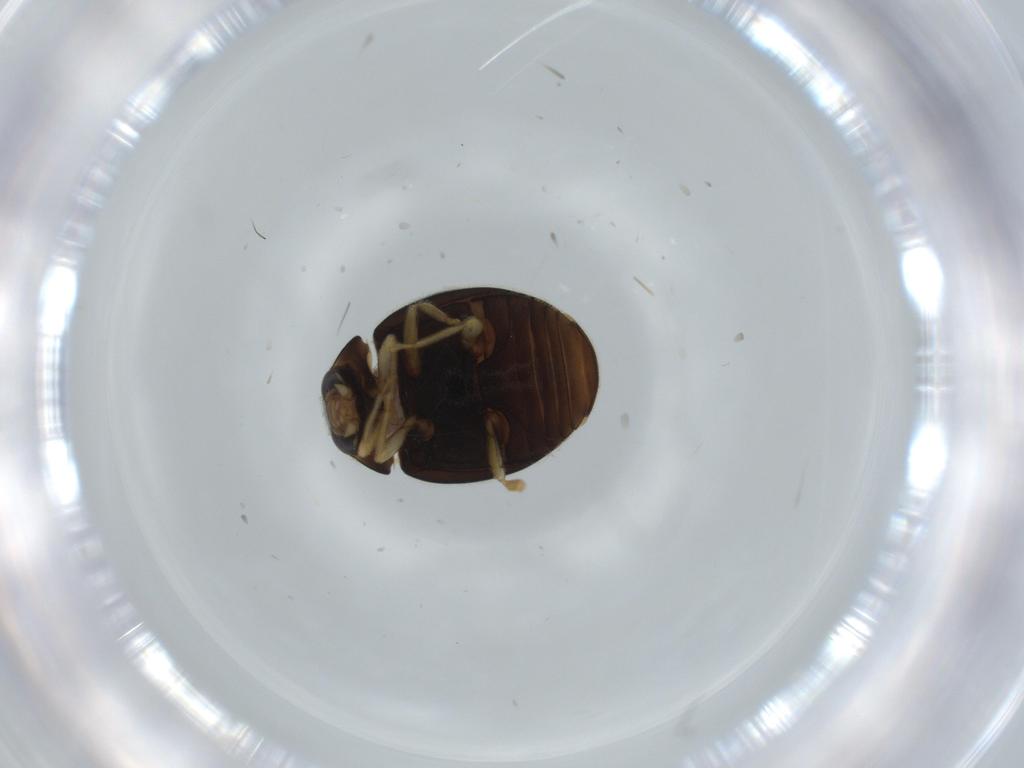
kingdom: Animalia
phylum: Arthropoda
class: Insecta
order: Coleoptera
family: Coccinellidae
